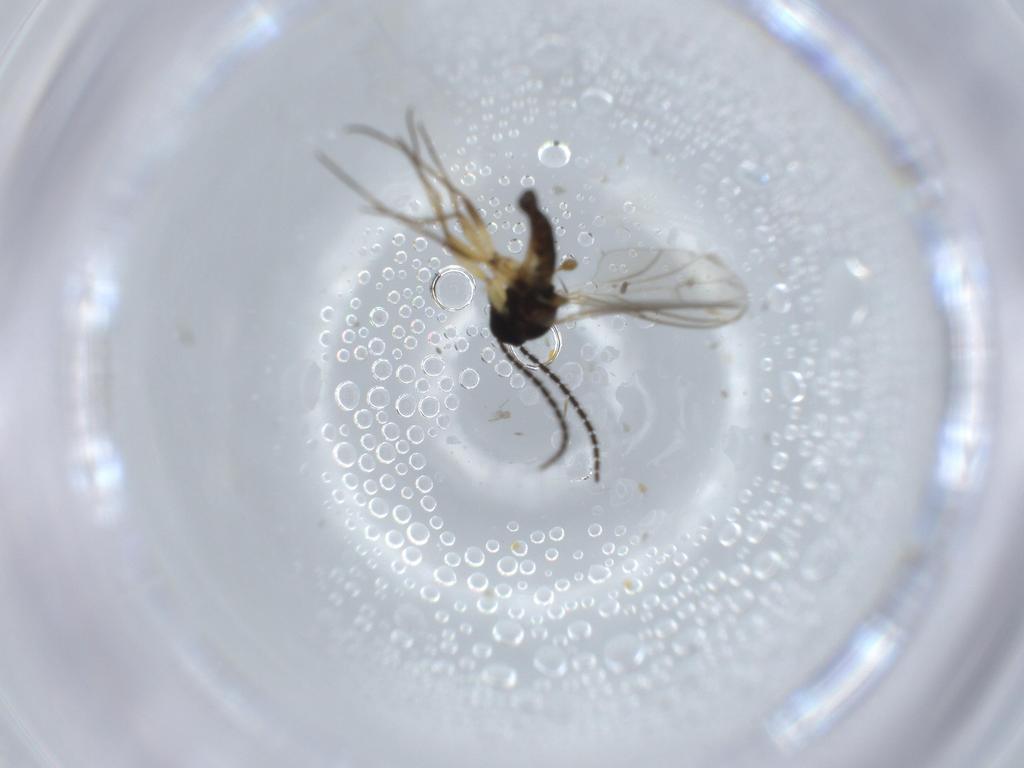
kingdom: Animalia
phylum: Arthropoda
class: Insecta
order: Diptera
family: Sciaridae
